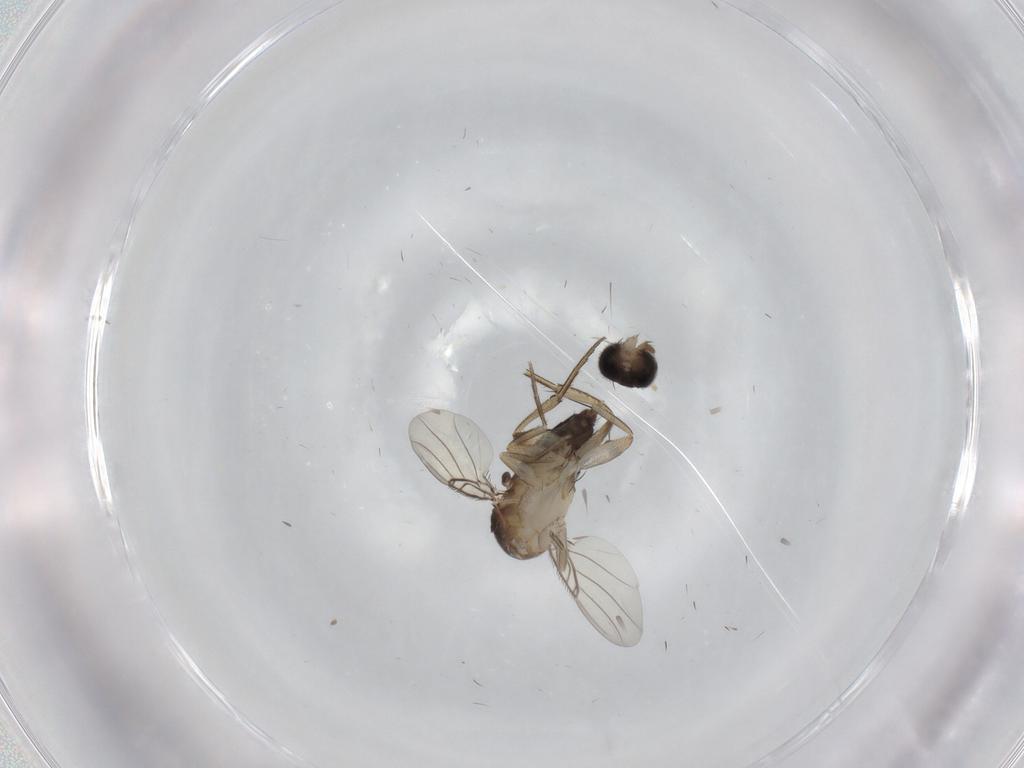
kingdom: Animalia
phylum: Arthropoda
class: Insecta
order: Diptera
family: Phoridae
